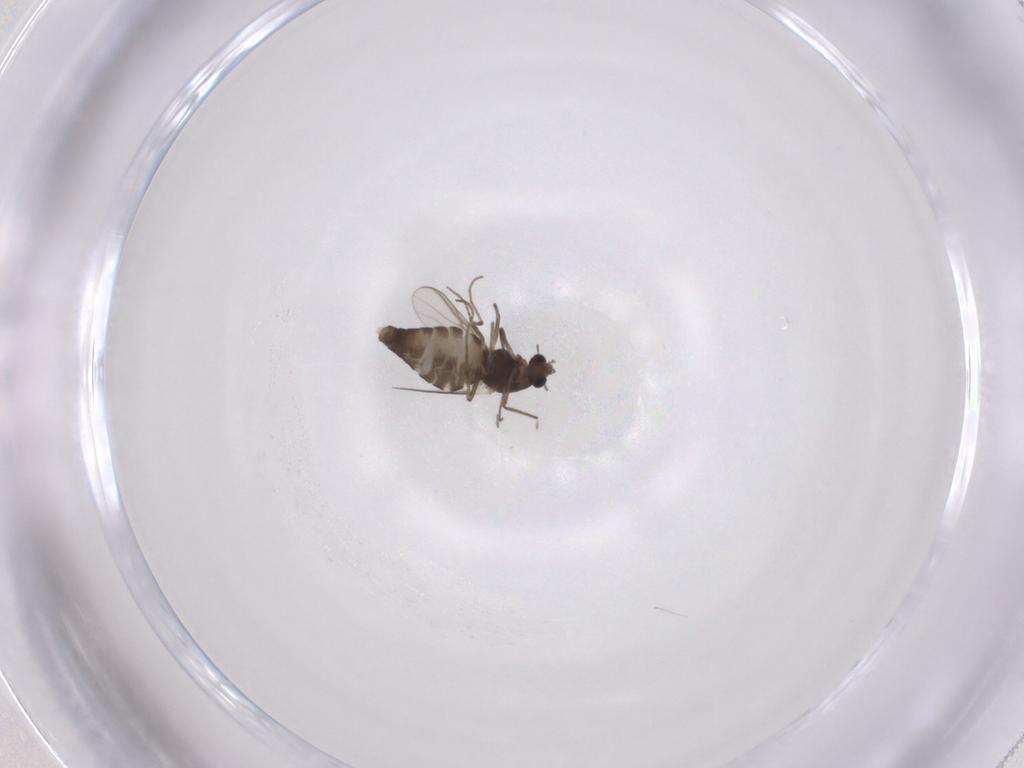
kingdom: Animalia
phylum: Arthropoda
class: Insecta
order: Diptera
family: Chironomidae
